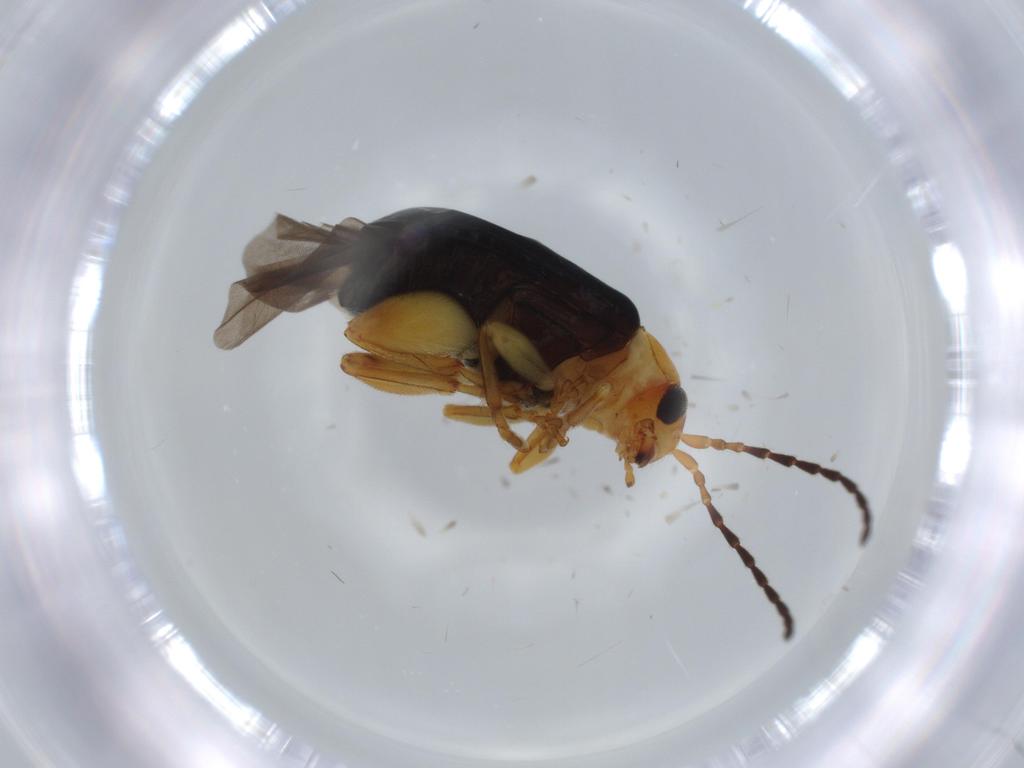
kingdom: Animalia
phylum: Arthropoda
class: Insecta
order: Coleoptera
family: Chrysomelidae
